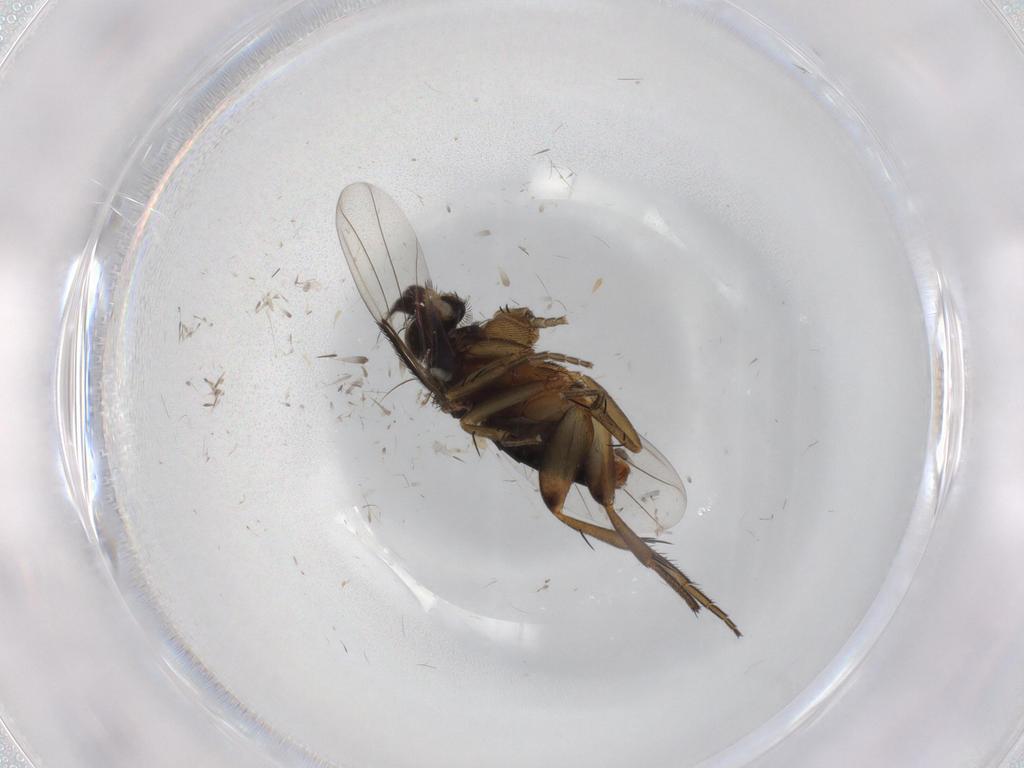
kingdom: Animalia
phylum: Arthropoda
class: Insecta
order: Diptera
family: Phoridae
